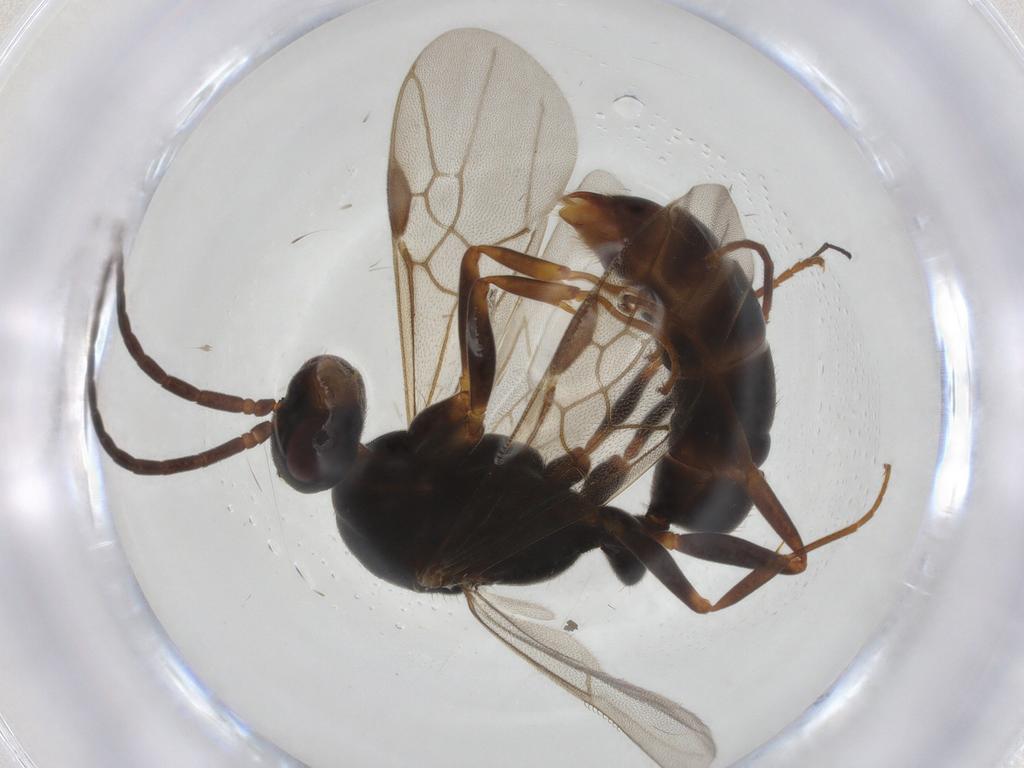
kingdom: Animalia
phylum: Arthropoda
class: Insecta
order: Hymenoptera
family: Formicidae
